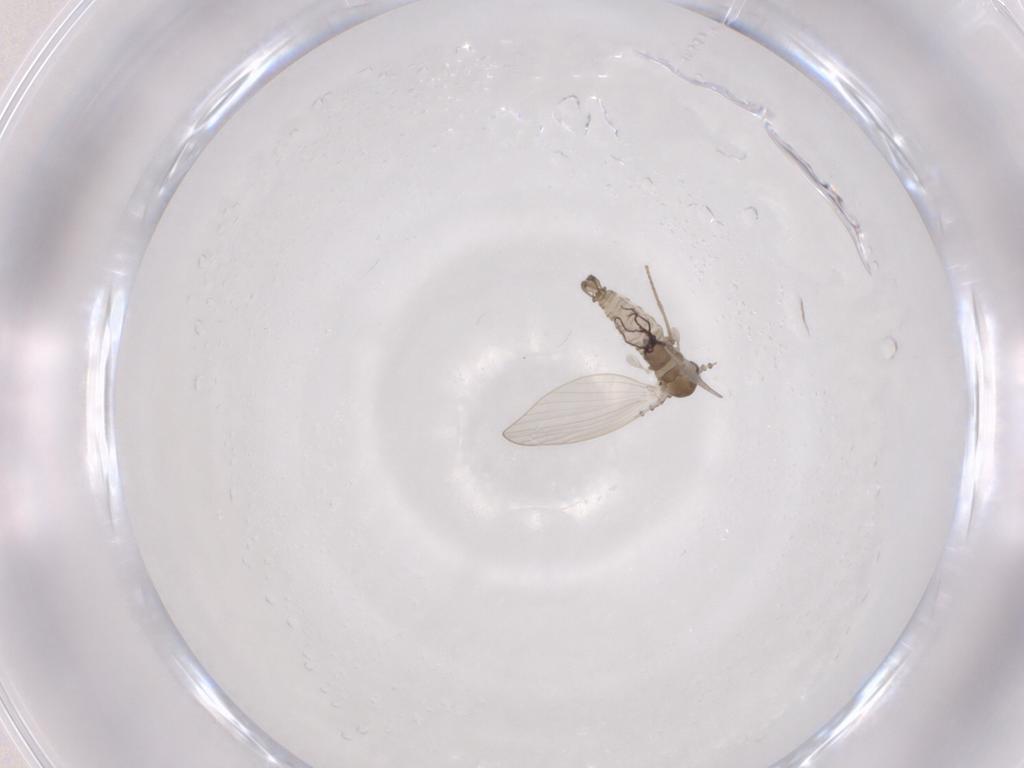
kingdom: Animalia
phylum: Arthropoda
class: Insecta
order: Diptera
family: Psychodidae
